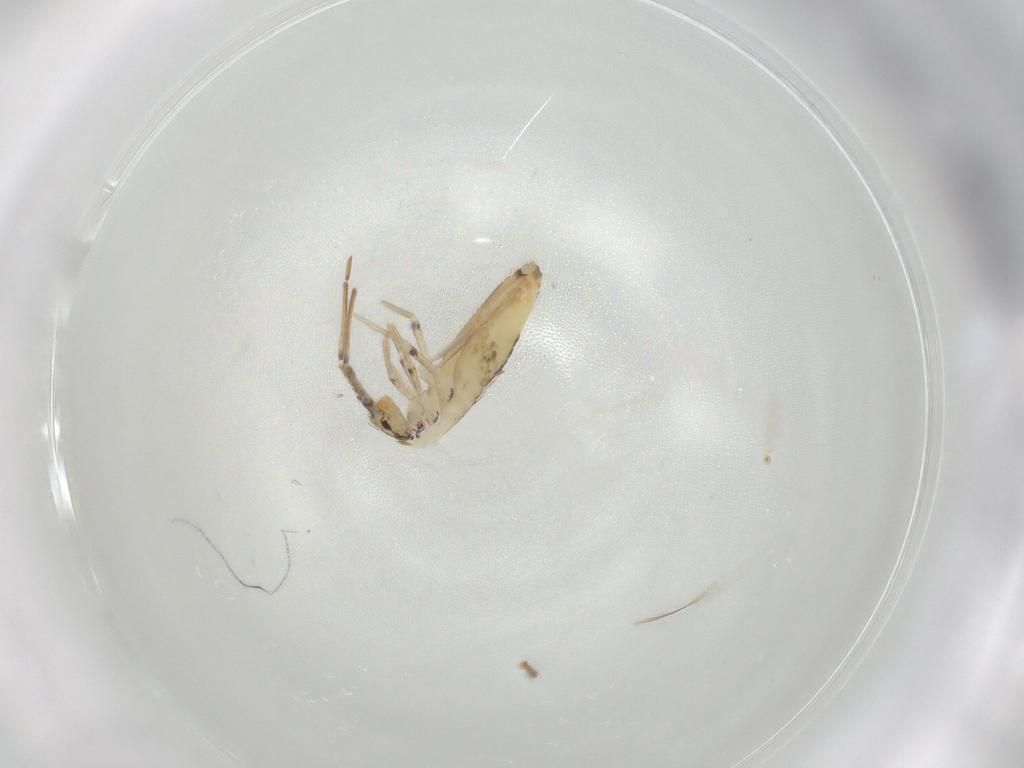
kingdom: Animalia
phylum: Arthropoda
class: Collembola
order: Entomobryomorpha
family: Entomobryidae
